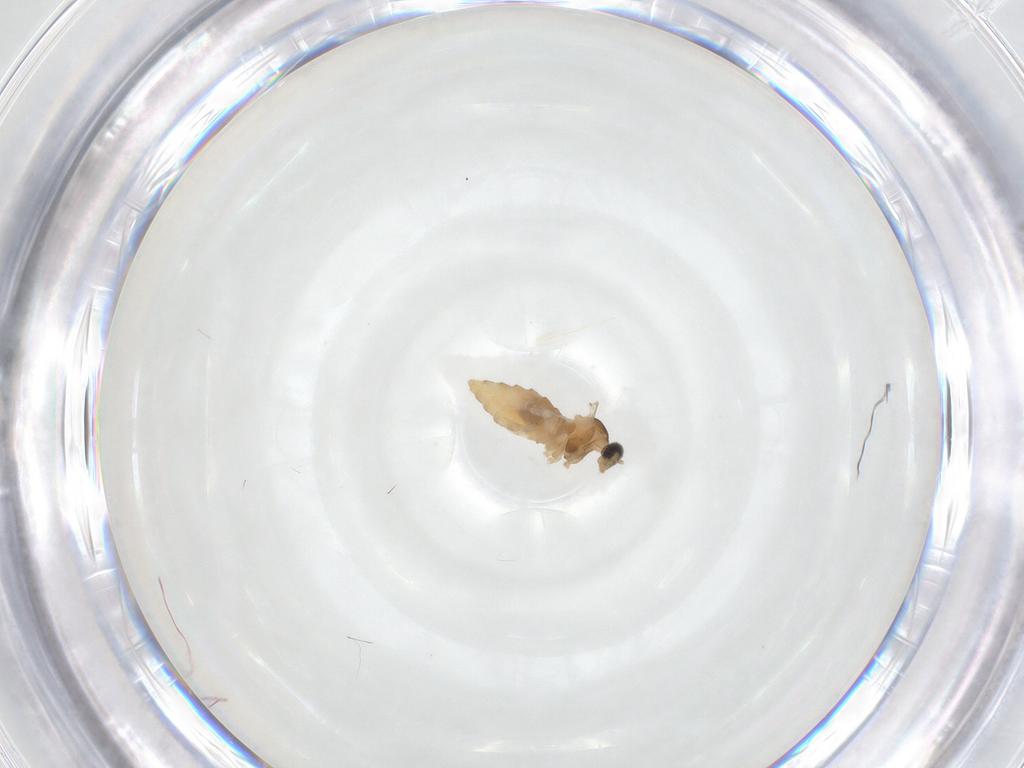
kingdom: Animalia
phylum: Arthropoda
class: Insecta
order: Diptera
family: Cecidomyiidae
